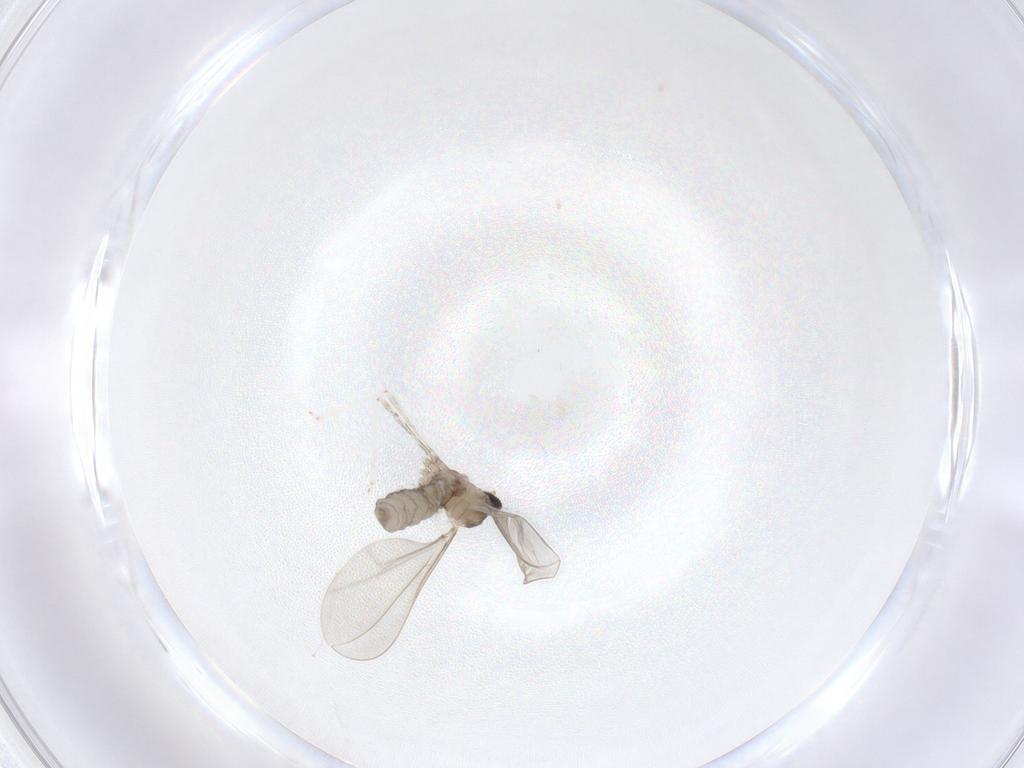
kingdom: Animalia
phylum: Arthropoda
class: Insecta
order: Diptera
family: Cecidomyiidae
